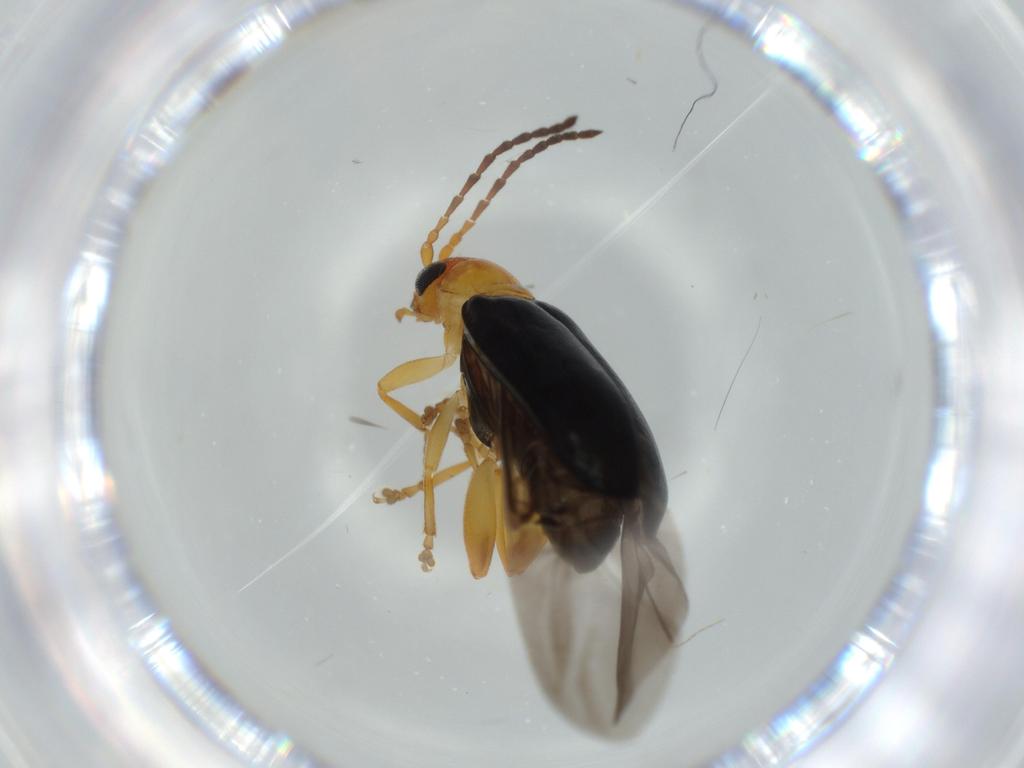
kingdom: Animalia
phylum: Arthropoda
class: Insecta
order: Coleoptera
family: Chrysomelidae
